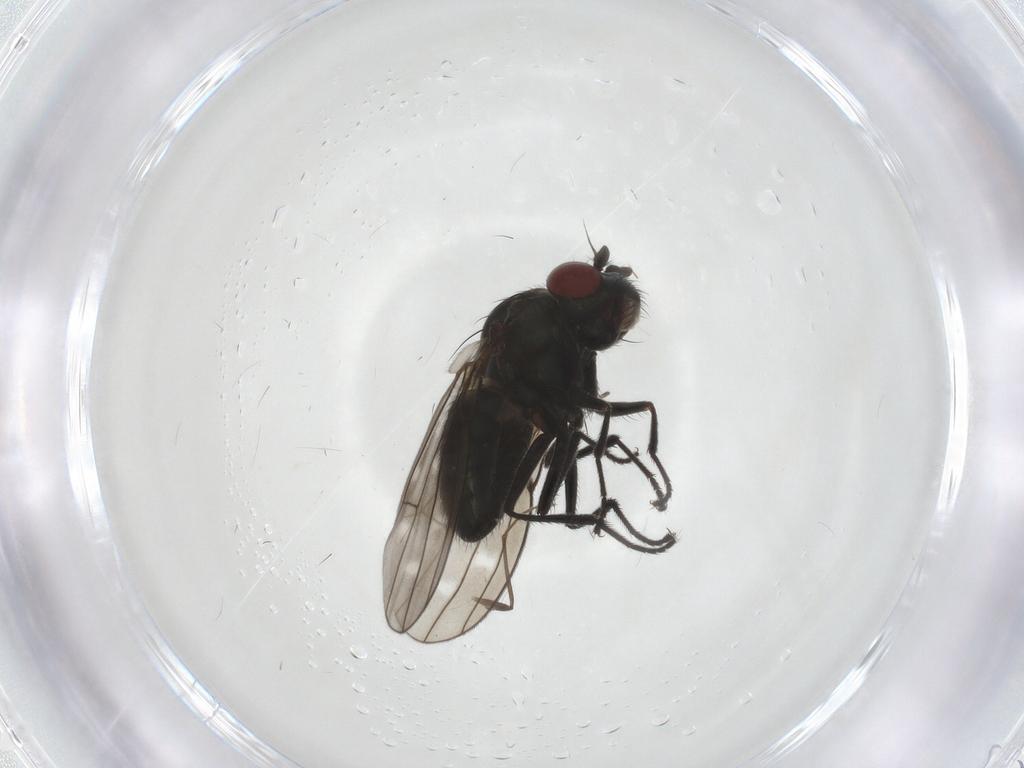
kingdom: Animalia
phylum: Arthropoda
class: Insecta
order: Diptera
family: Ephydridae
